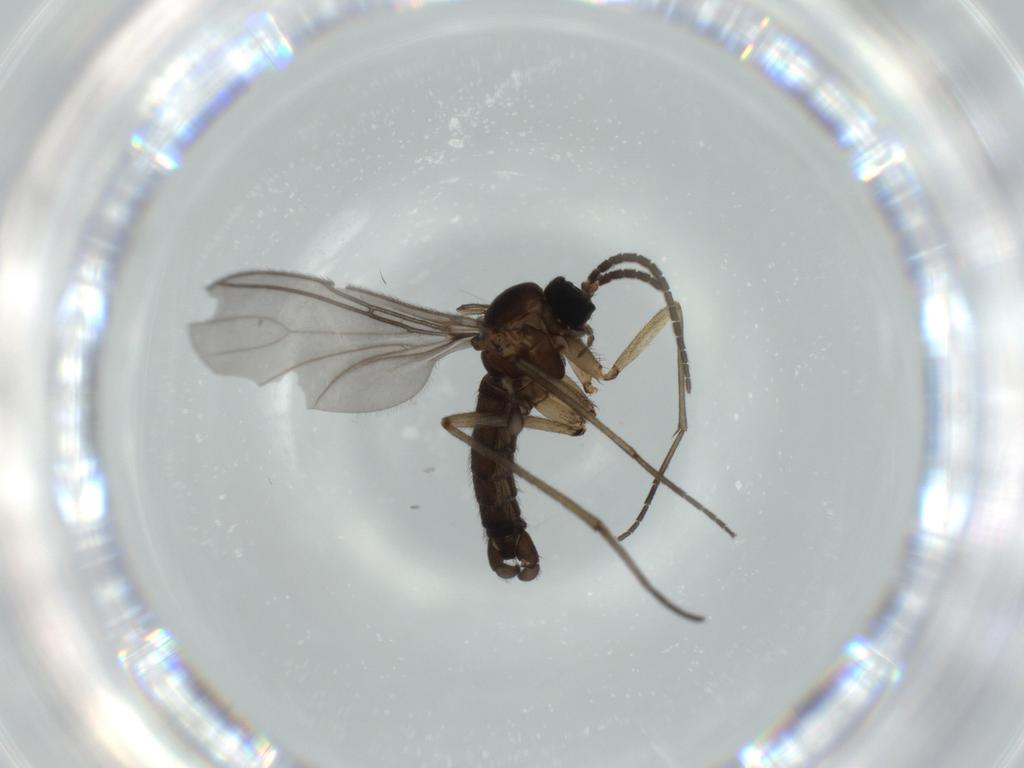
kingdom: Animalia
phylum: Arthropoda
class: Insecta
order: Diptera
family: Sciaridae
